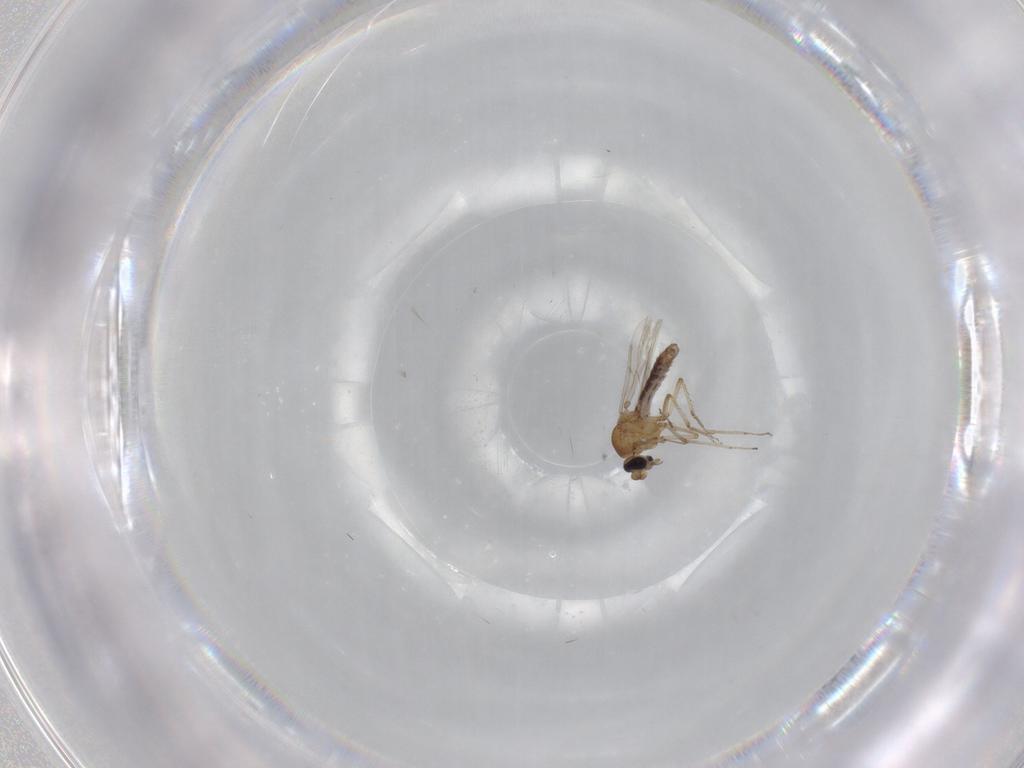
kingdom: Animalia
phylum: Arthropoda
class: Insecta
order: Diptera
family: Ceratopogonidae
